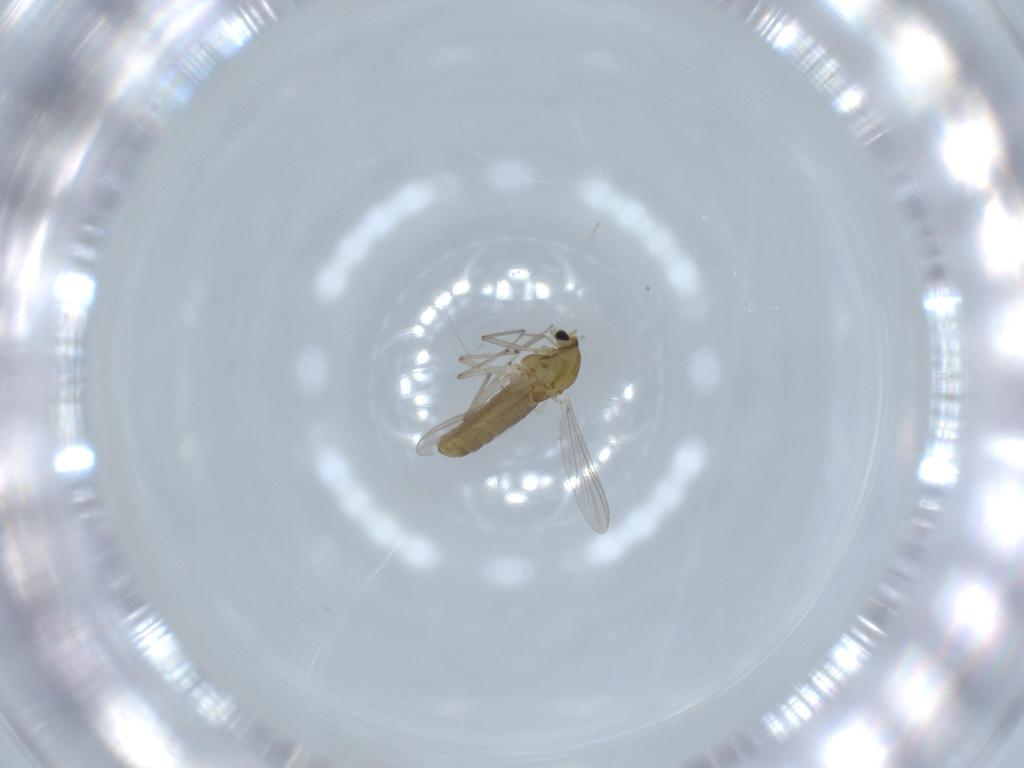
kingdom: Animalia
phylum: Arthropoda
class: Insecta
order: Diptera
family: Chironomidae
